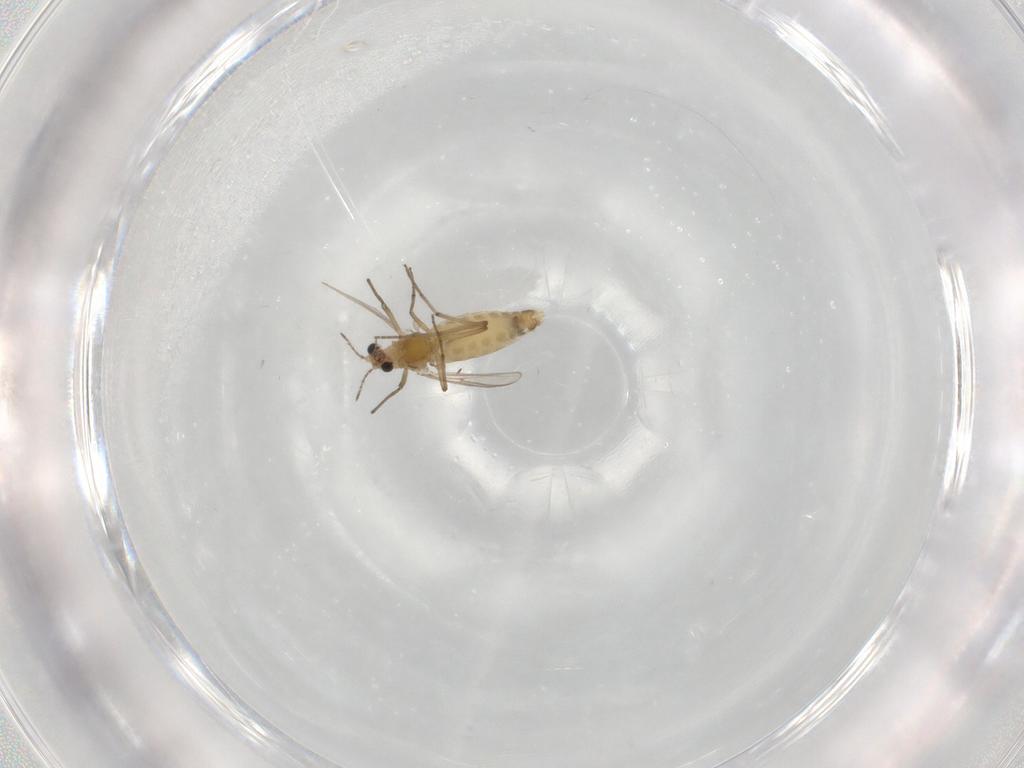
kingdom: Animalia
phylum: Arthropoda
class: Insecta
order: Diptera
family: Chironomidae
